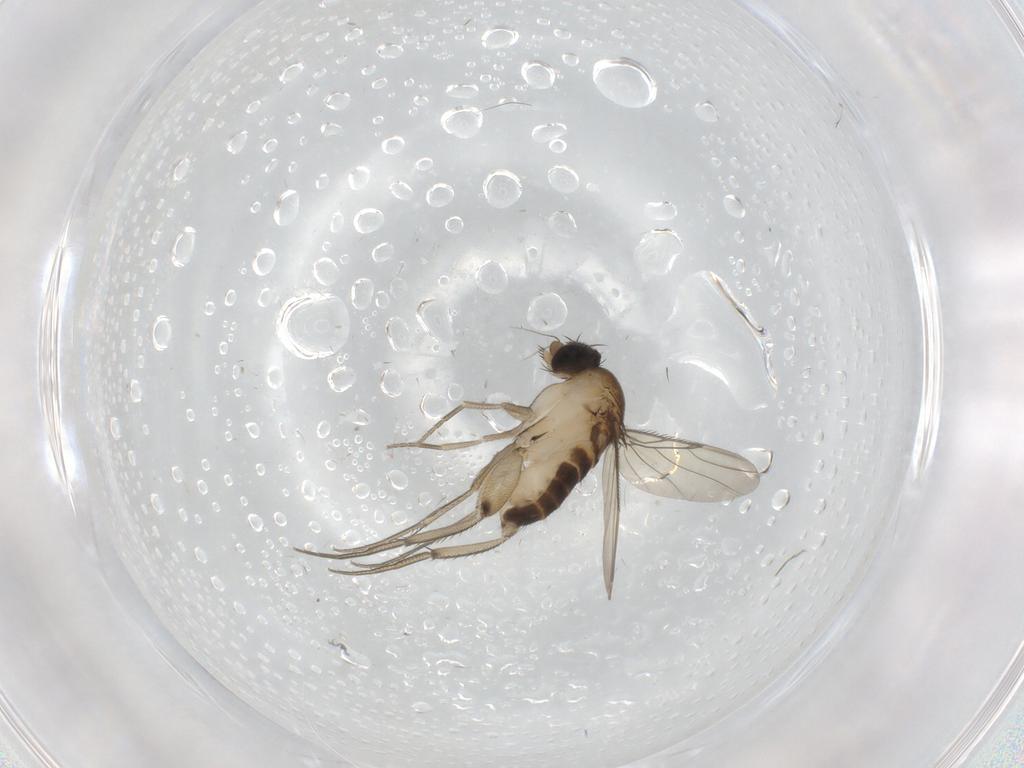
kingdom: Animalia
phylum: Arthropoda
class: Insecta
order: Diptera
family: Phoridae
